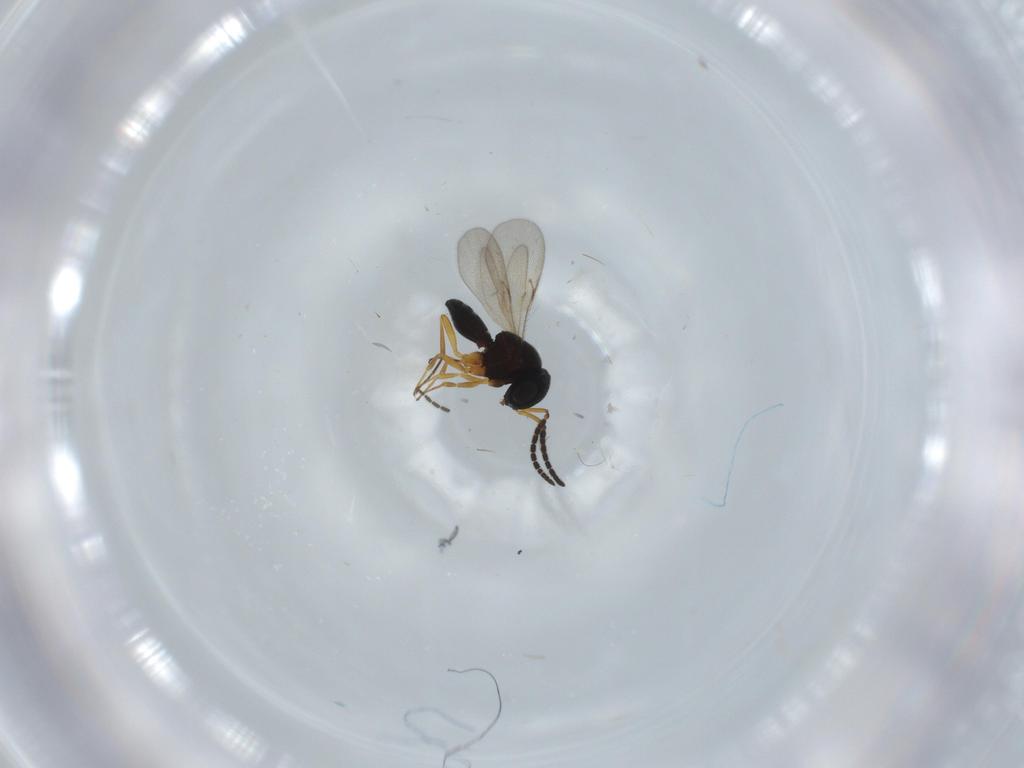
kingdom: Animalia
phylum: Arthropoda
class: Insecta
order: Hymenoptera
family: Scelionidae
